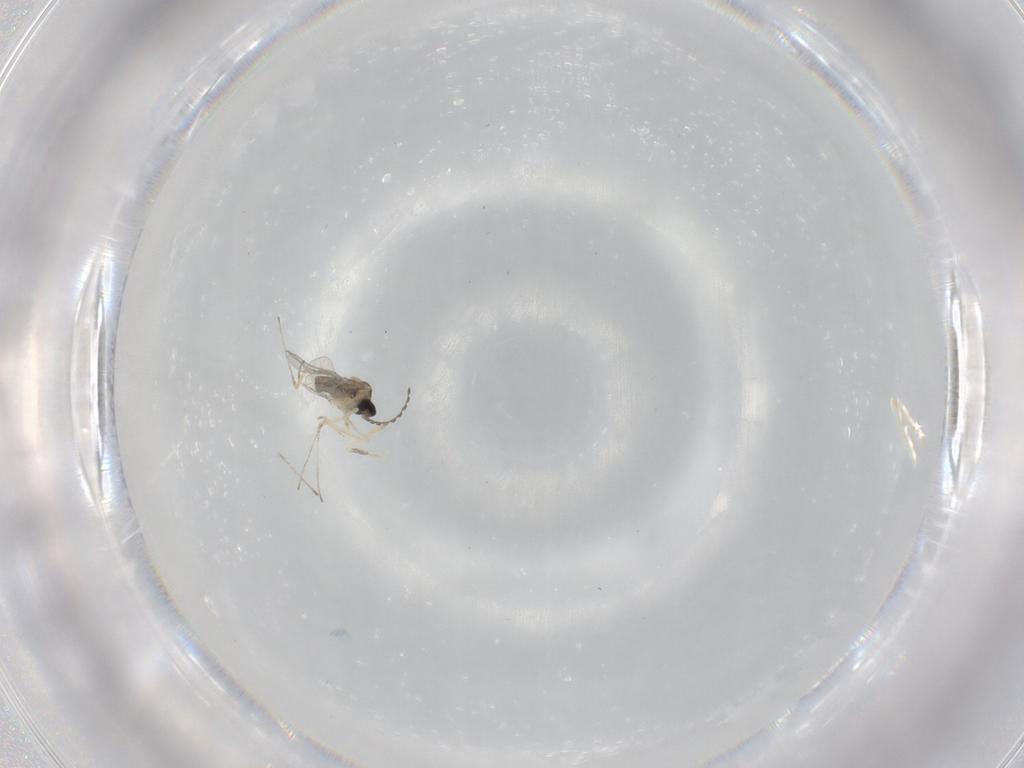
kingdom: Animalia
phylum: Arthropoda
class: Insecta
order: Diptera
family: Cecidomyiidae
